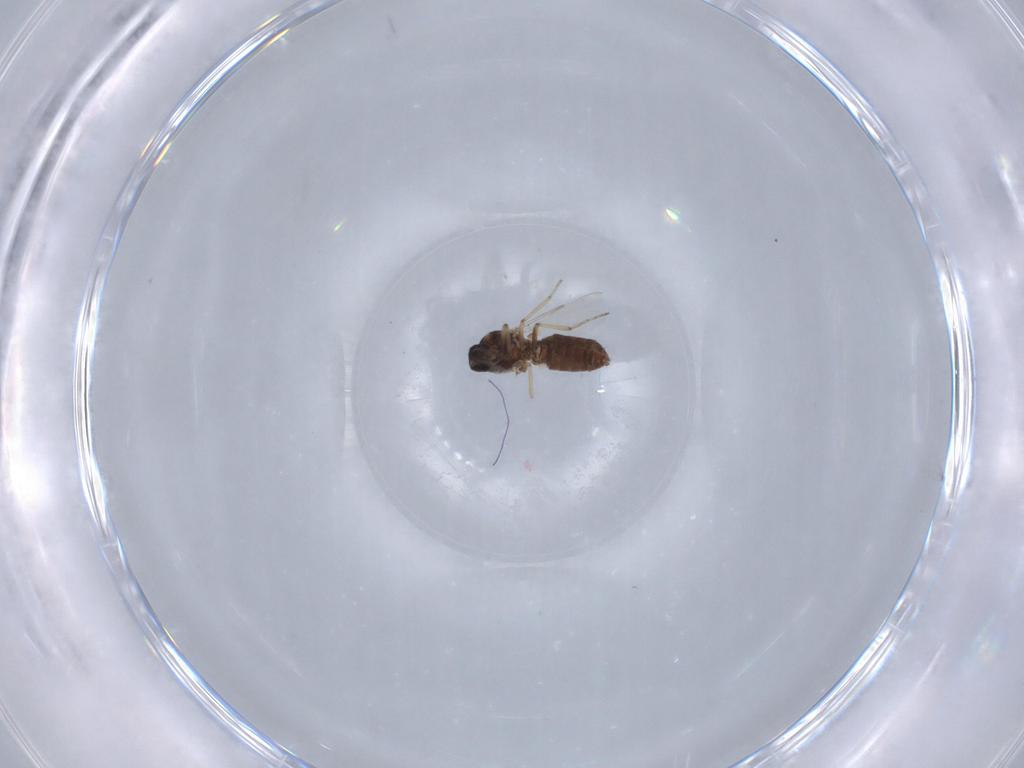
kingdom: Animalia
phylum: Arthropoda
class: Insecta
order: Diptera
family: Ceratopogonidae
